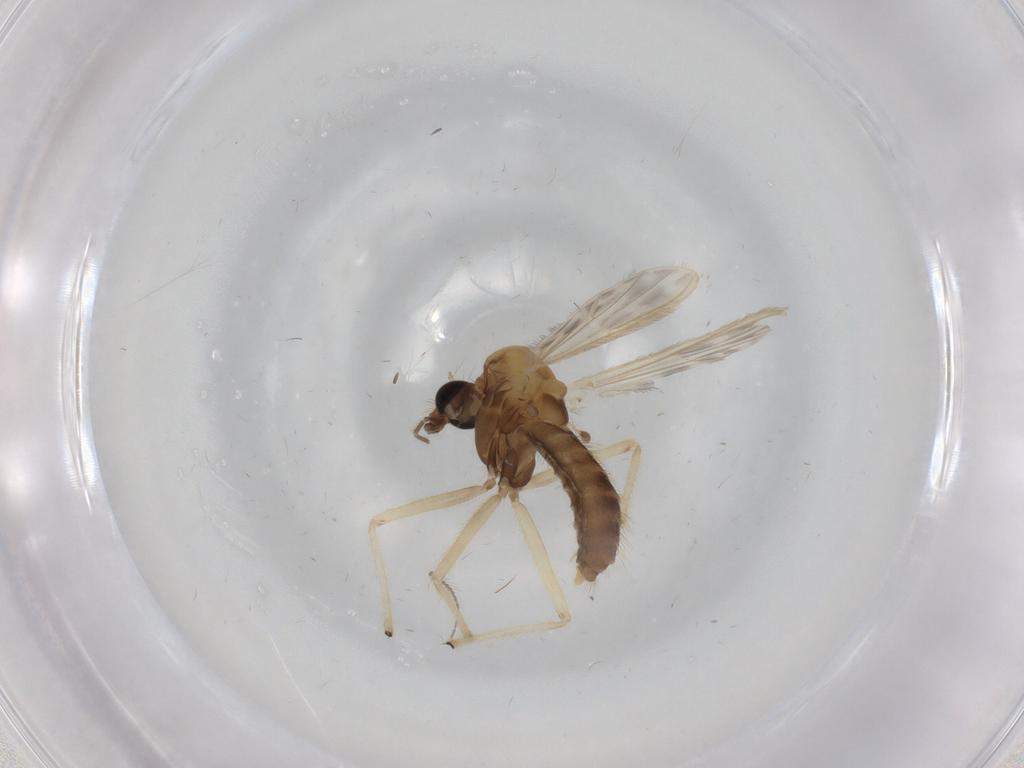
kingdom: Animalia
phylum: Arthropoda
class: Insecta
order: Diptera
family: Chironomidae
